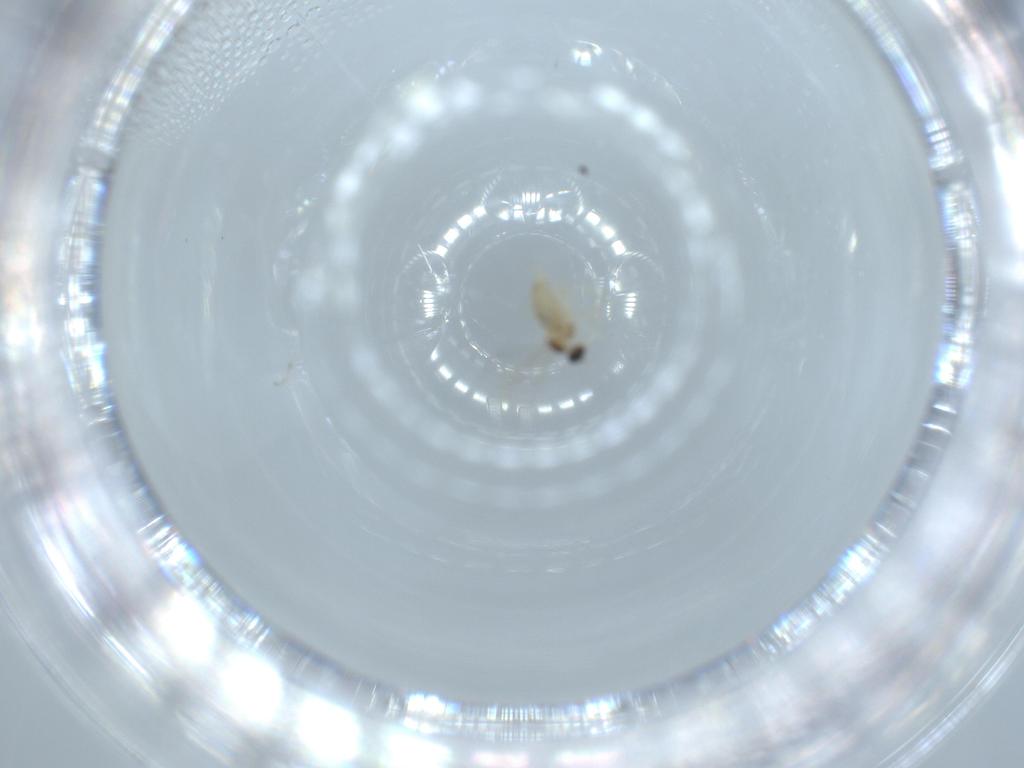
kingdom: Animalia
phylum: Arthropoda
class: Insecta
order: Diptera
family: Cecidomyiidae
